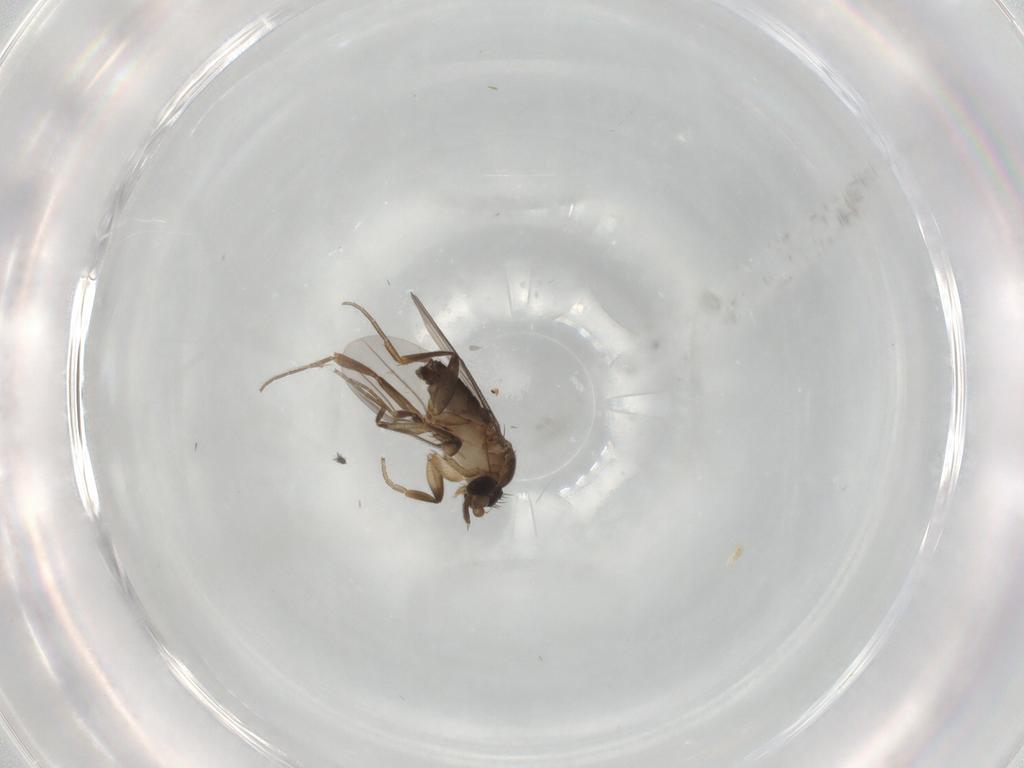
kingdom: Animalia
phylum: Arthropoda
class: Insecta
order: Diptera
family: Phoridae
